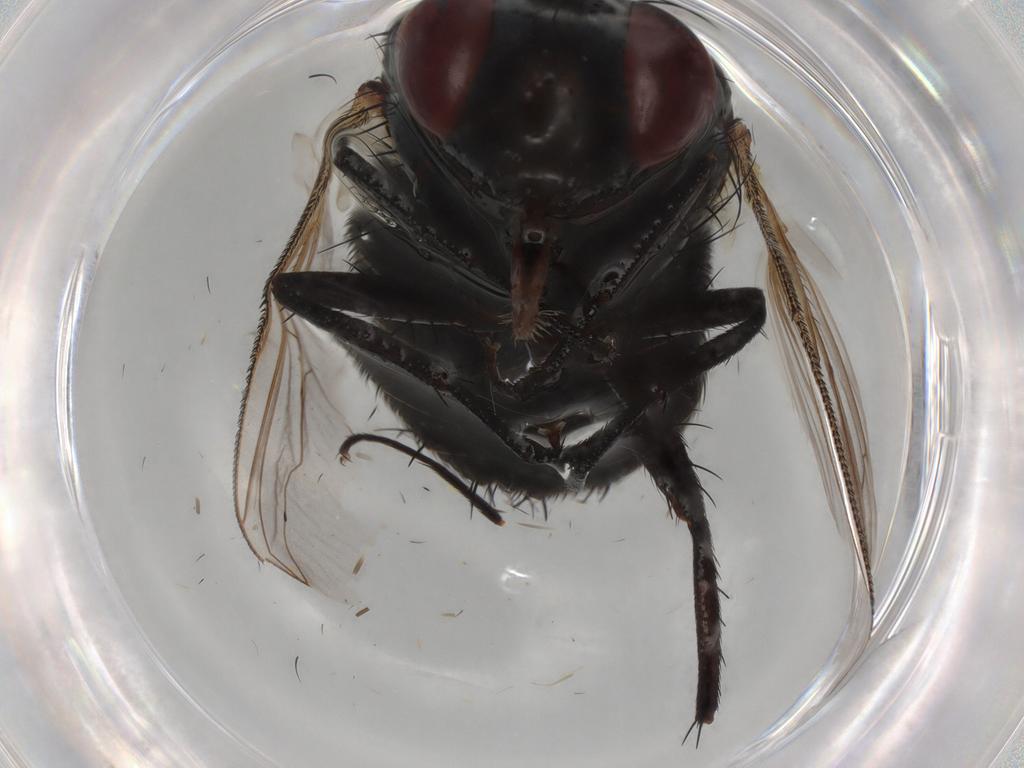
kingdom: Animalia
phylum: Arthropoda
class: Insecta
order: Diptera
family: Sarcophagidae
